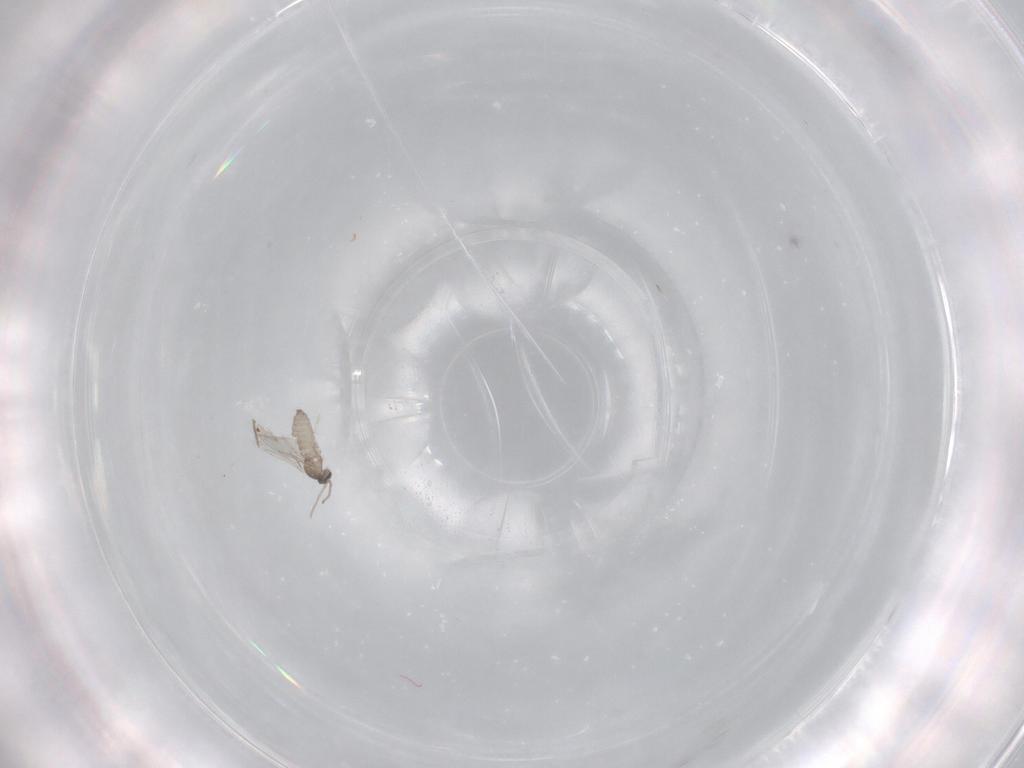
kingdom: Animalia
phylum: Arthropoda
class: Insecta
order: Diptera
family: Cecidomyiidae
